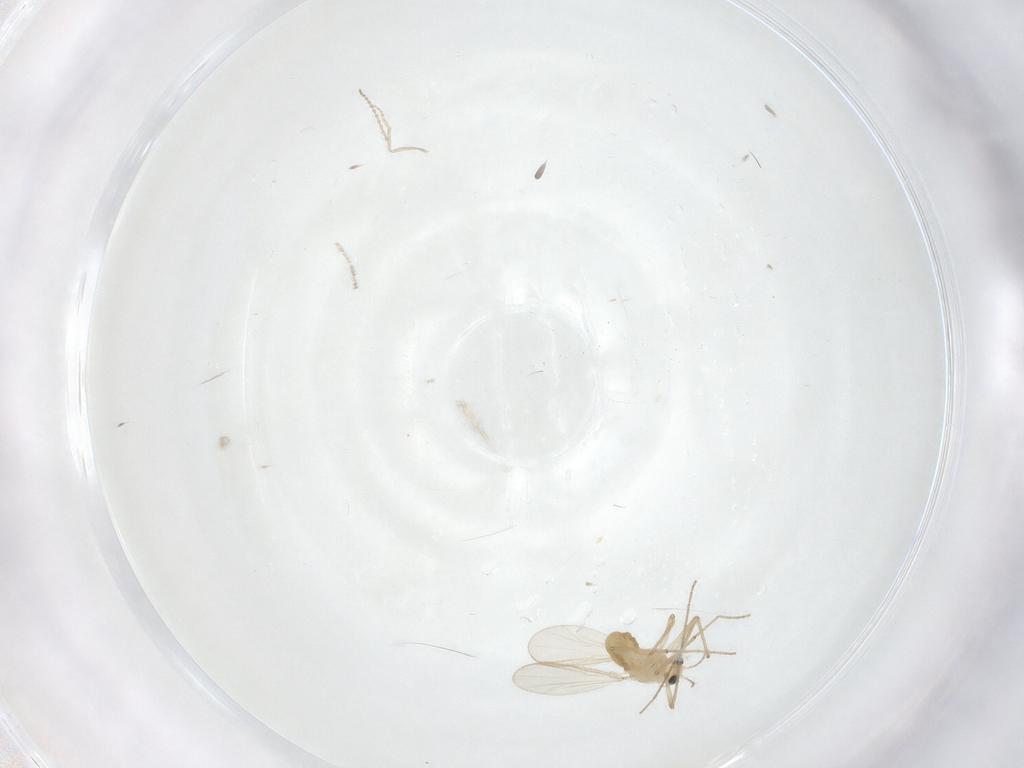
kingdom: Animalia
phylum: Arthropoda
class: Insecta
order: Diptera
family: Cecidomyiidae
